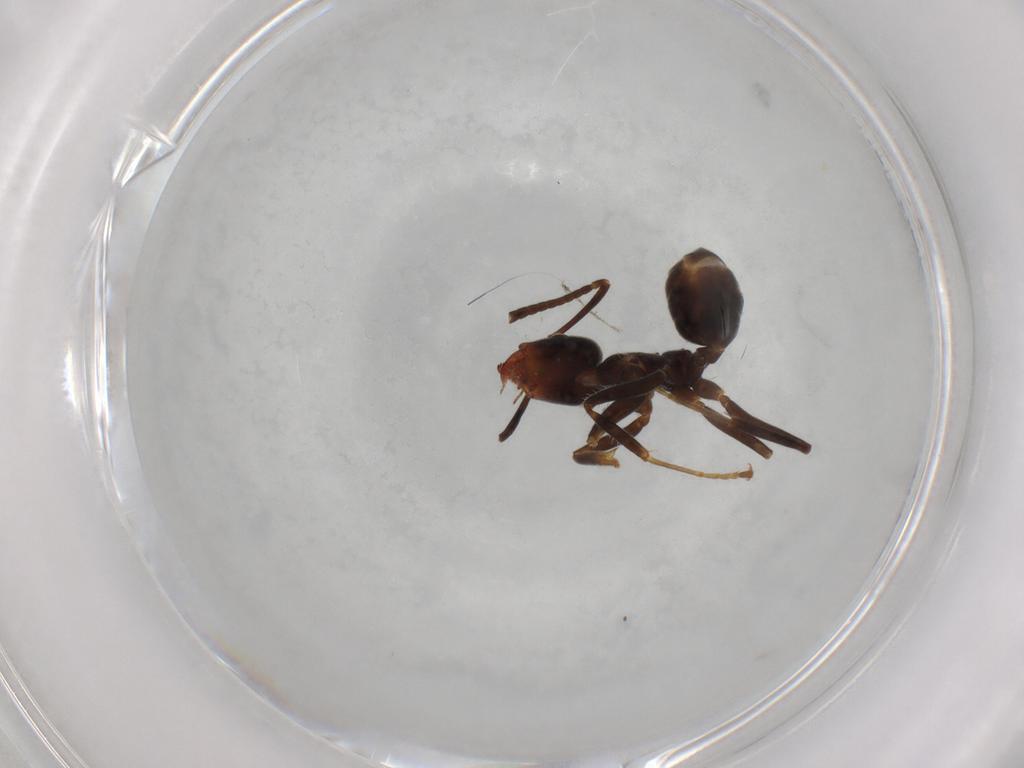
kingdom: Animalia
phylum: Arthropoda
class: Insecta
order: Hymenoptera
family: Formicidae
